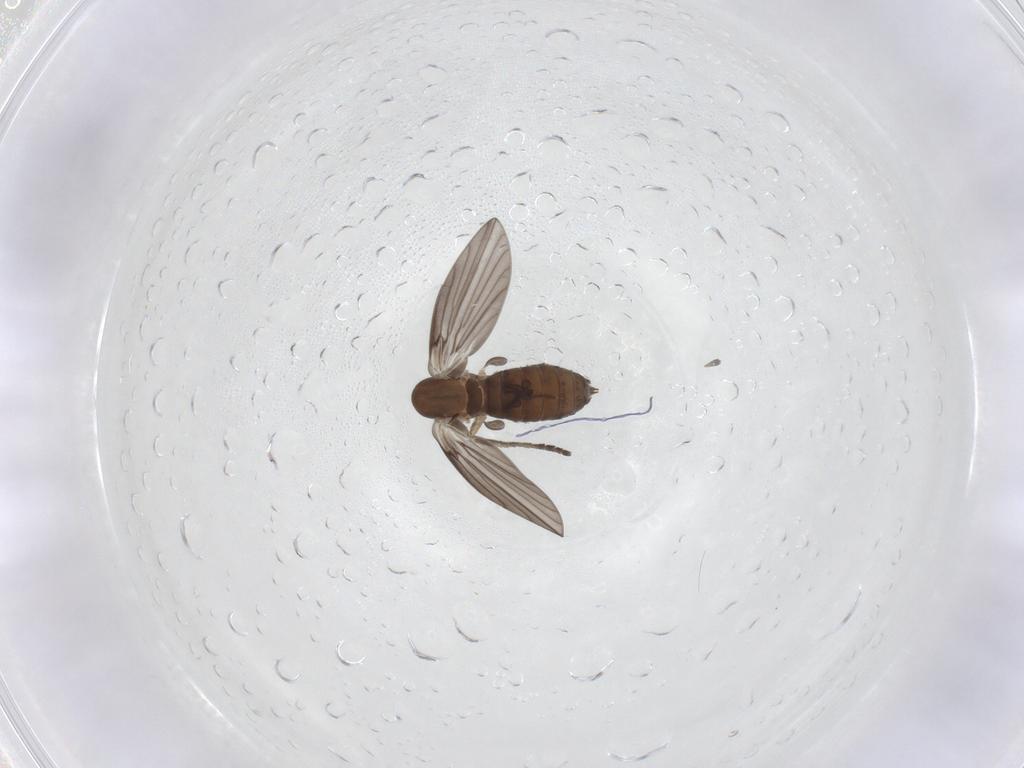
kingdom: Animalia
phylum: Arthropoda
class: Insecta
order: Diptera
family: Psychodidae
